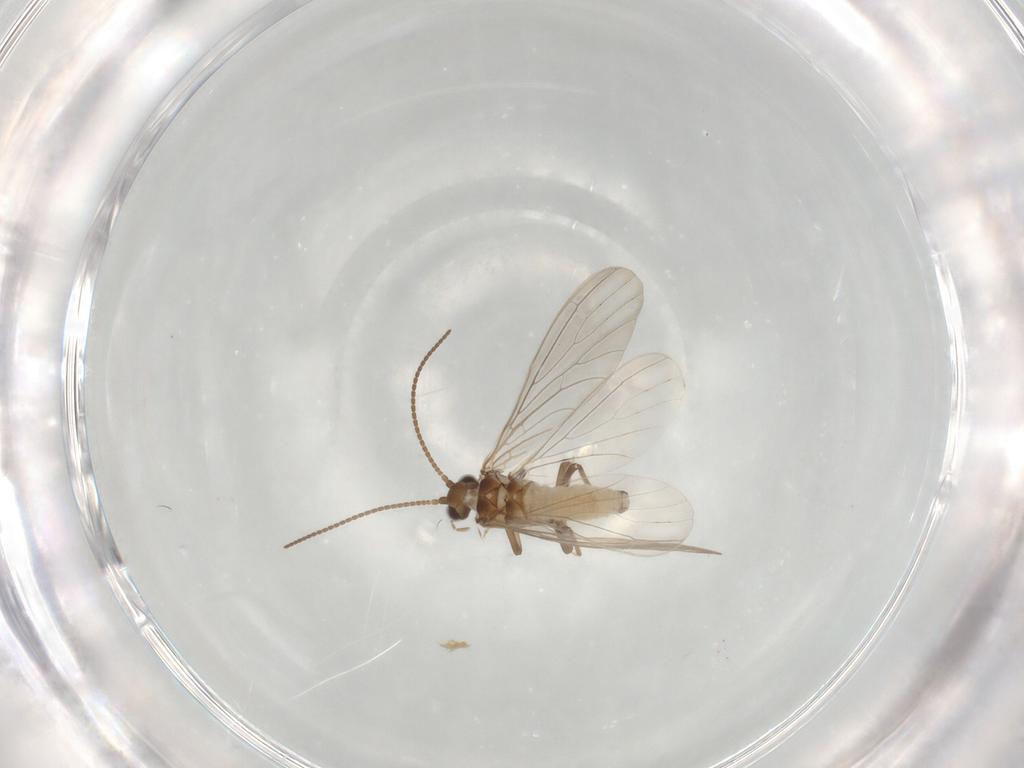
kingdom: Animalia
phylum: Arthropoda
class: Insecta
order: Neuroptera
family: Coniopterygidae
